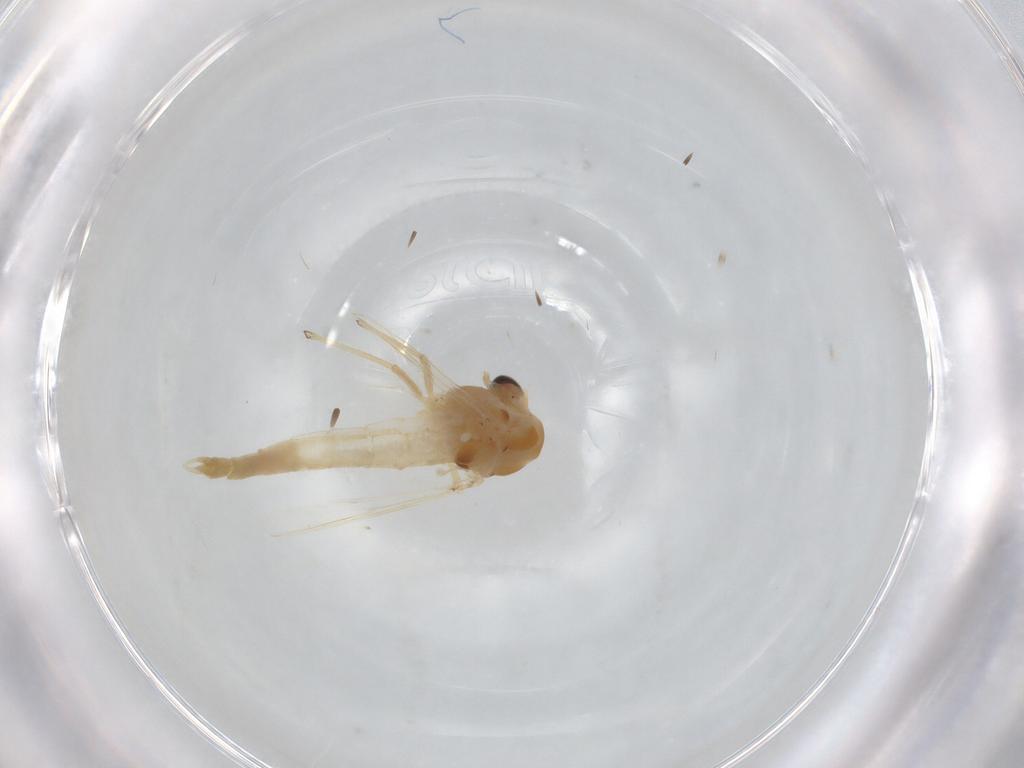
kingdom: Animalia
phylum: Arthropoda
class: Insecta
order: Diptera
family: Chironomidae
